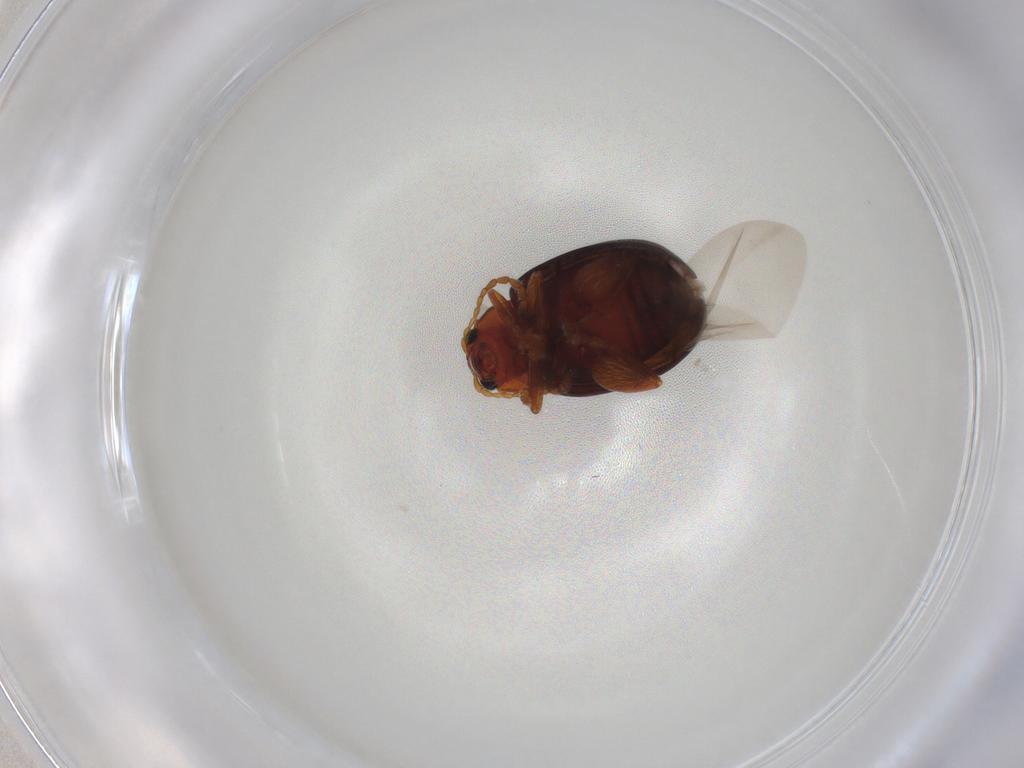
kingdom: Animalia
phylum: Arthropoda
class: Insecta
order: Coleoptera
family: Chrysomelidae
